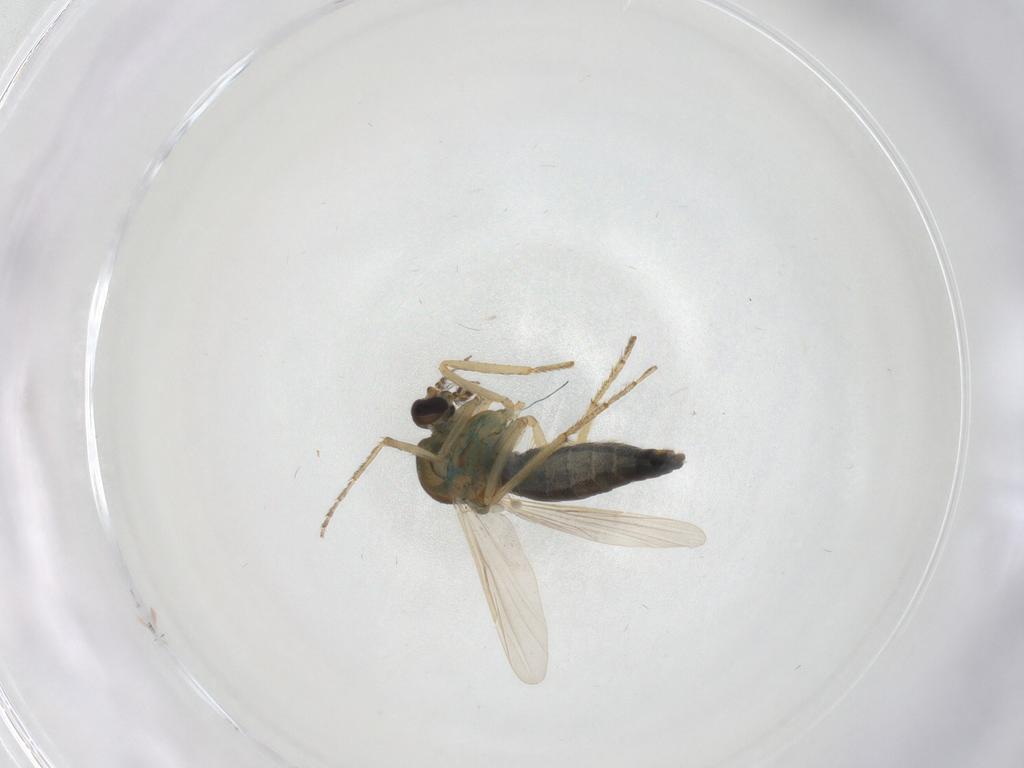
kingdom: Animalia
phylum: Arthropoda
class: Insecta
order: Diptera
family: Ceratopogonidae
